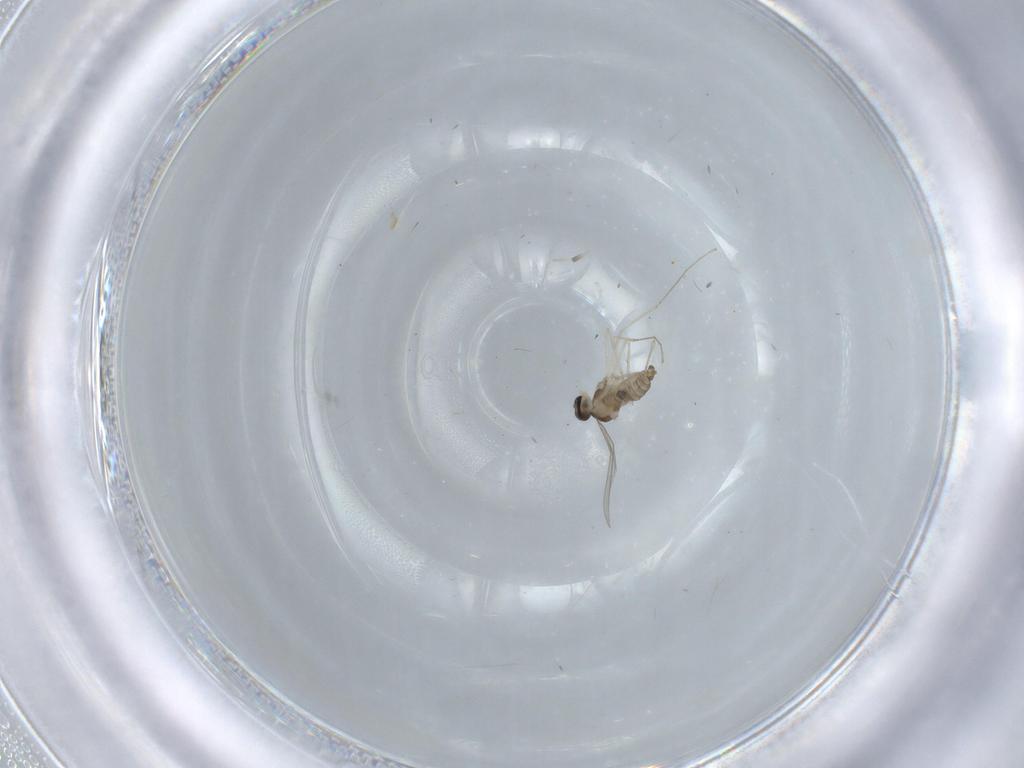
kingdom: Animalia
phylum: Arthropoda
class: Insecta
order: Diptera
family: Cecidomyiidae
